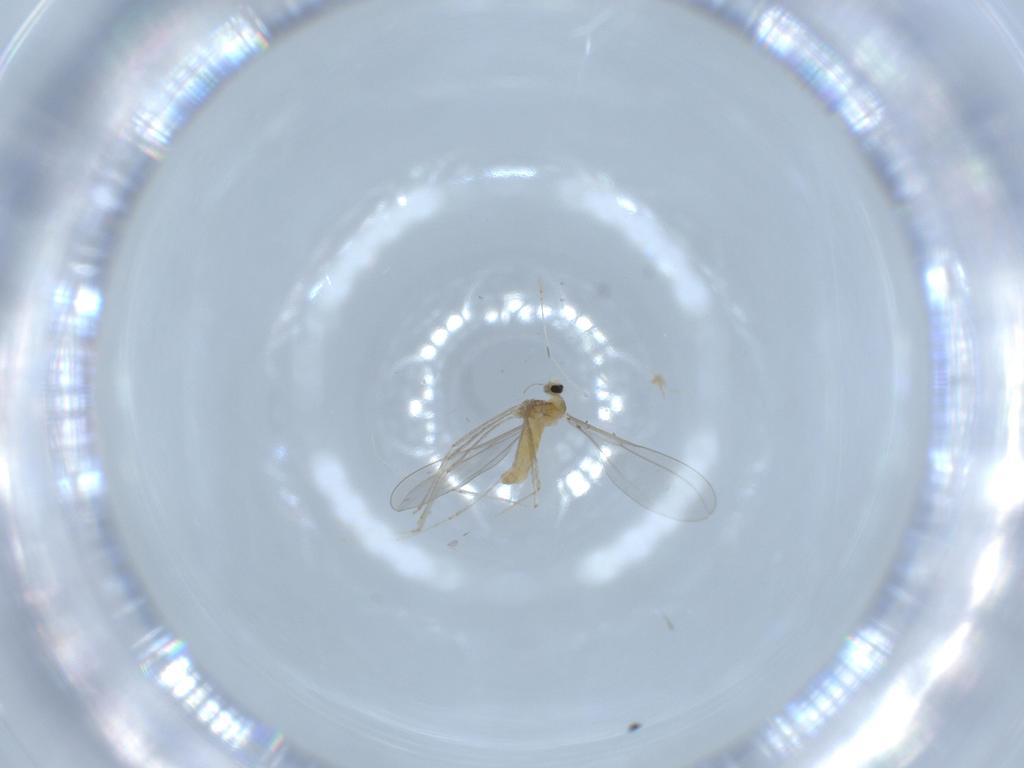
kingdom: Animalia
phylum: Arthropoda
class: Insecta
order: Diptera
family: Cecidomyiidae
